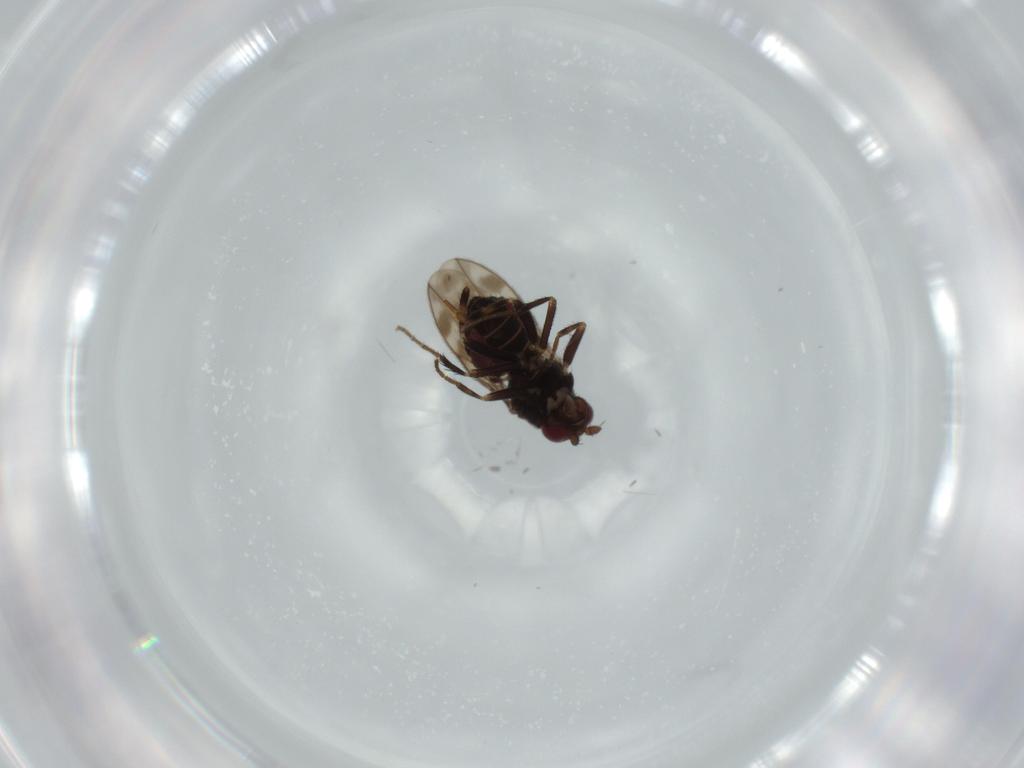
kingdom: Animalia
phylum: Arthropoda
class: Insecta
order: Diptera
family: Sphaeroceridae
